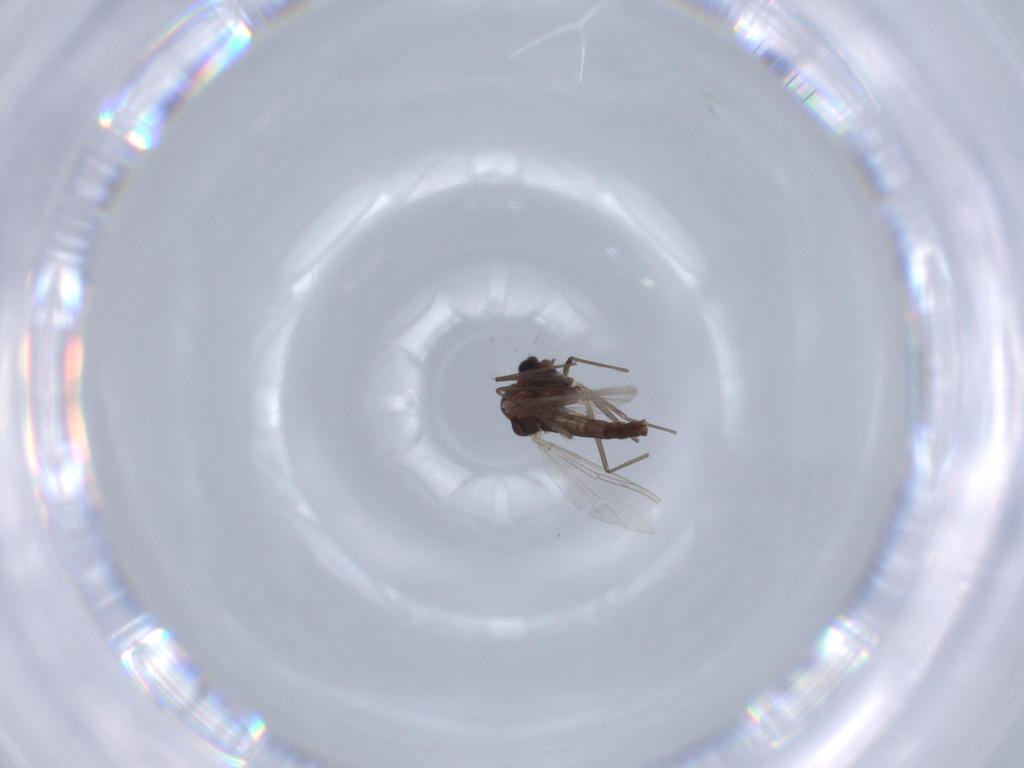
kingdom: Animalia
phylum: Arthropoda
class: Insecta
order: Diptera
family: Chironomidae
